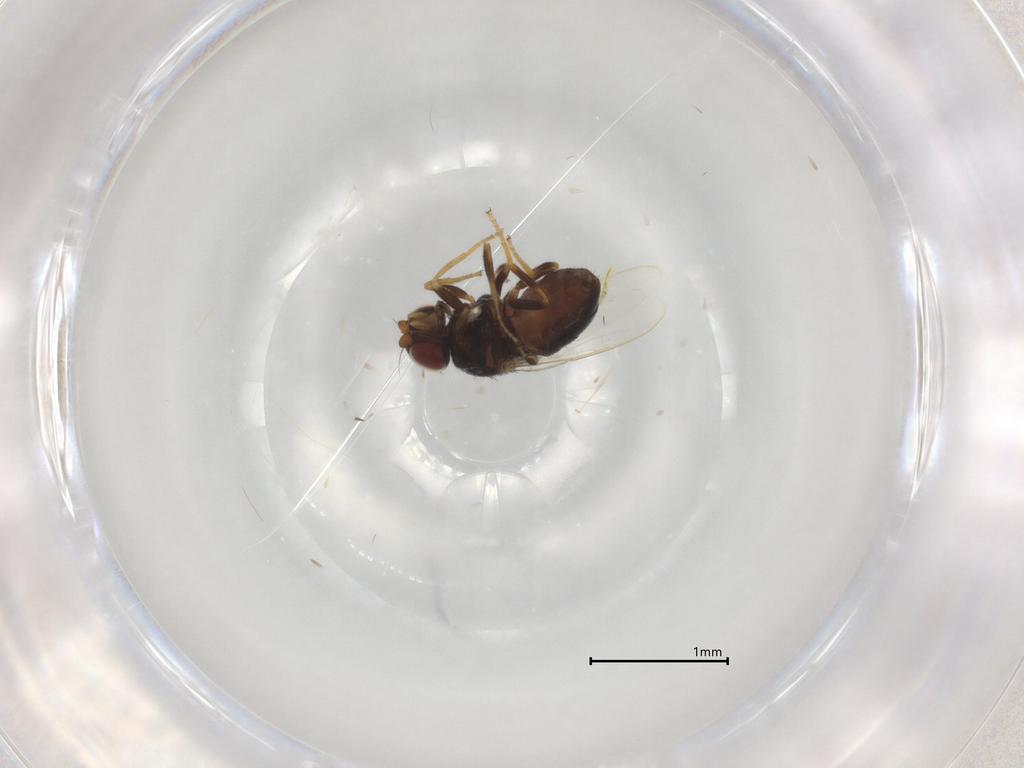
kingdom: Animalia
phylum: Arthropoda
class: Insecta
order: Diptera
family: Chloropidae
